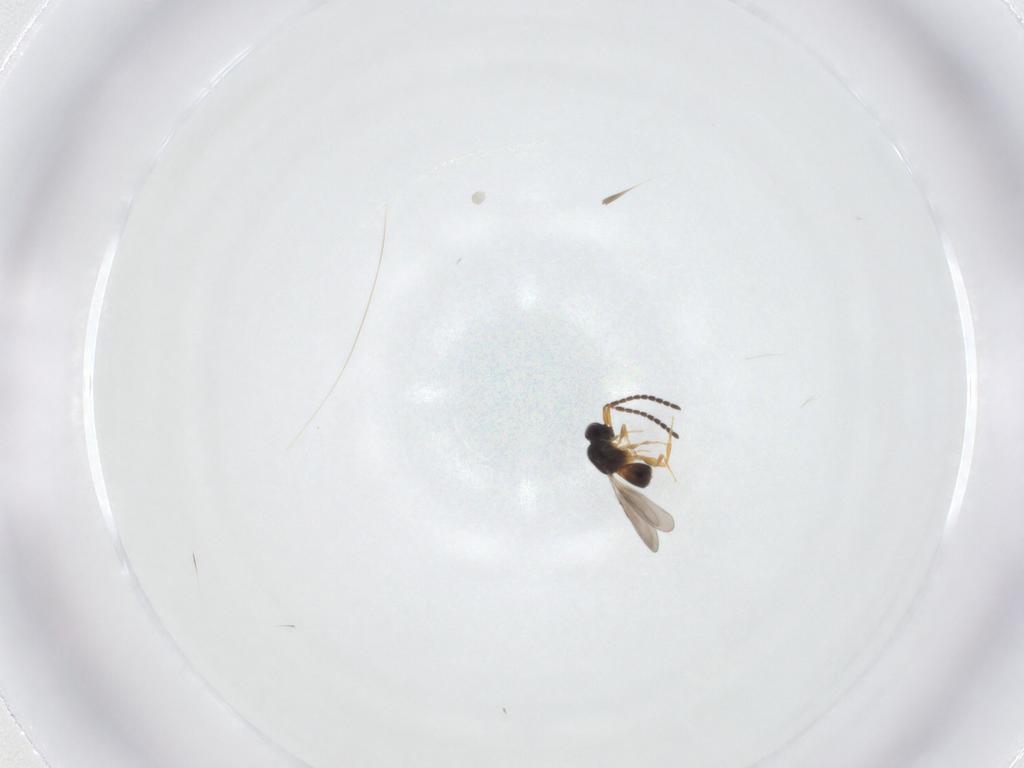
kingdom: Animalia
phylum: Arthropoda
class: Insecta
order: Hymenoptera
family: Ceraphronidae
